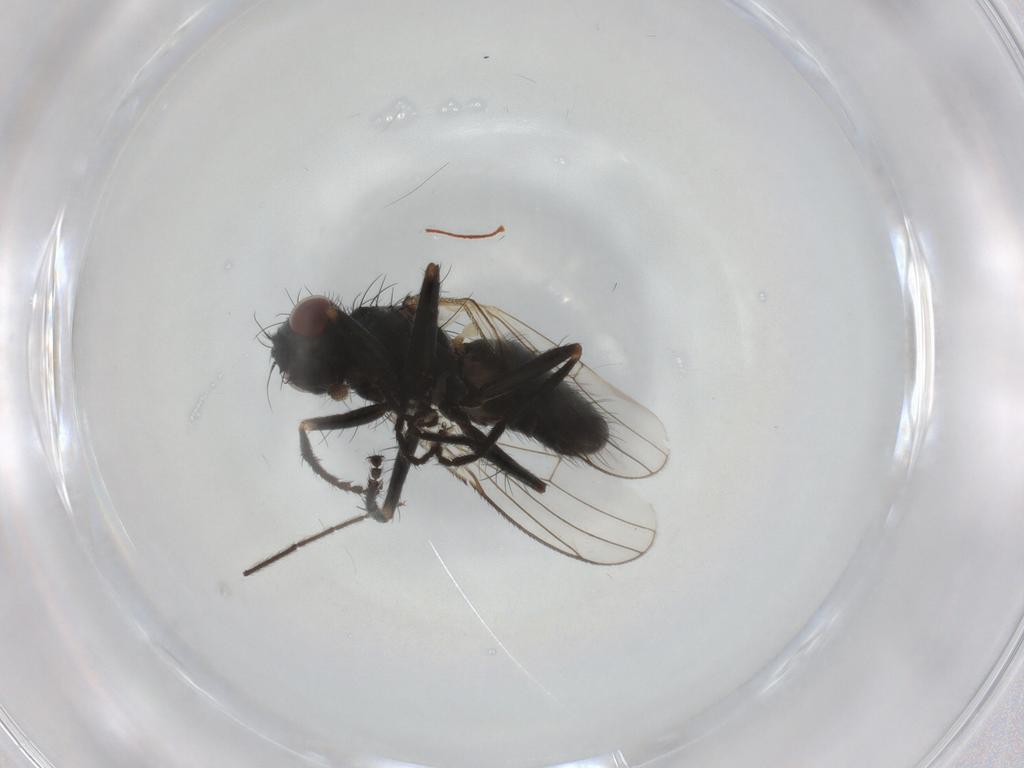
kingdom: Animalia
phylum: Arthropoda
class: Insecta
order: Diptera
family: Muscidae
